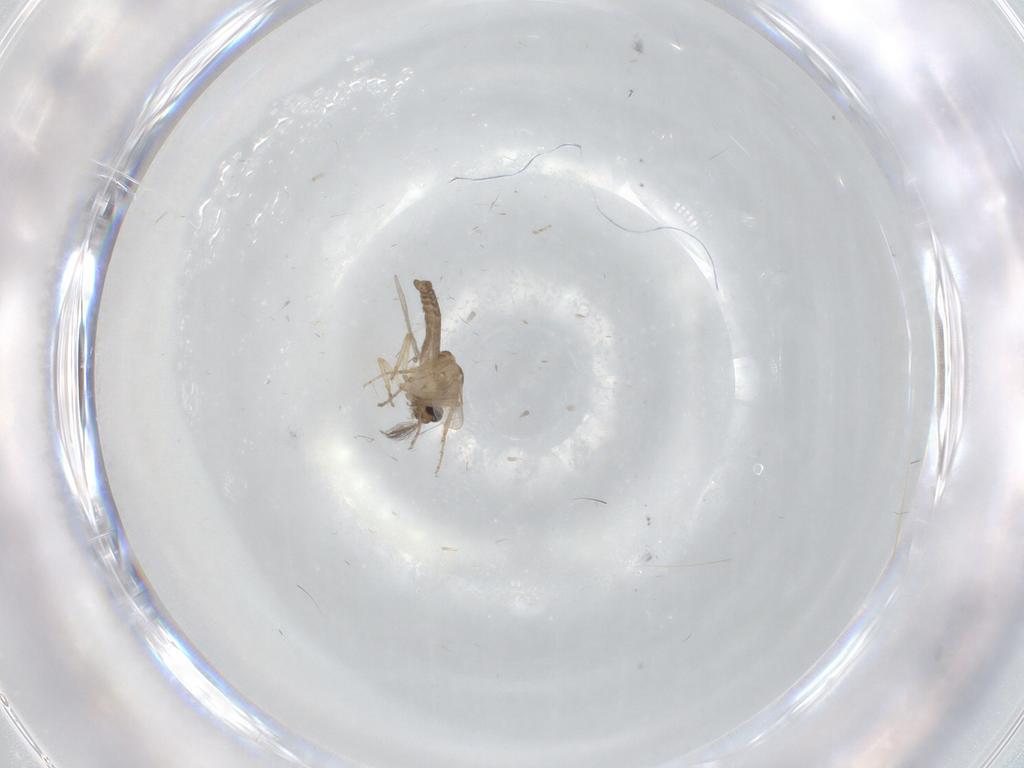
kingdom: Animalia
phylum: Arthropoda
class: Insecta
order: Diptera
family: Ceratopogonidae
